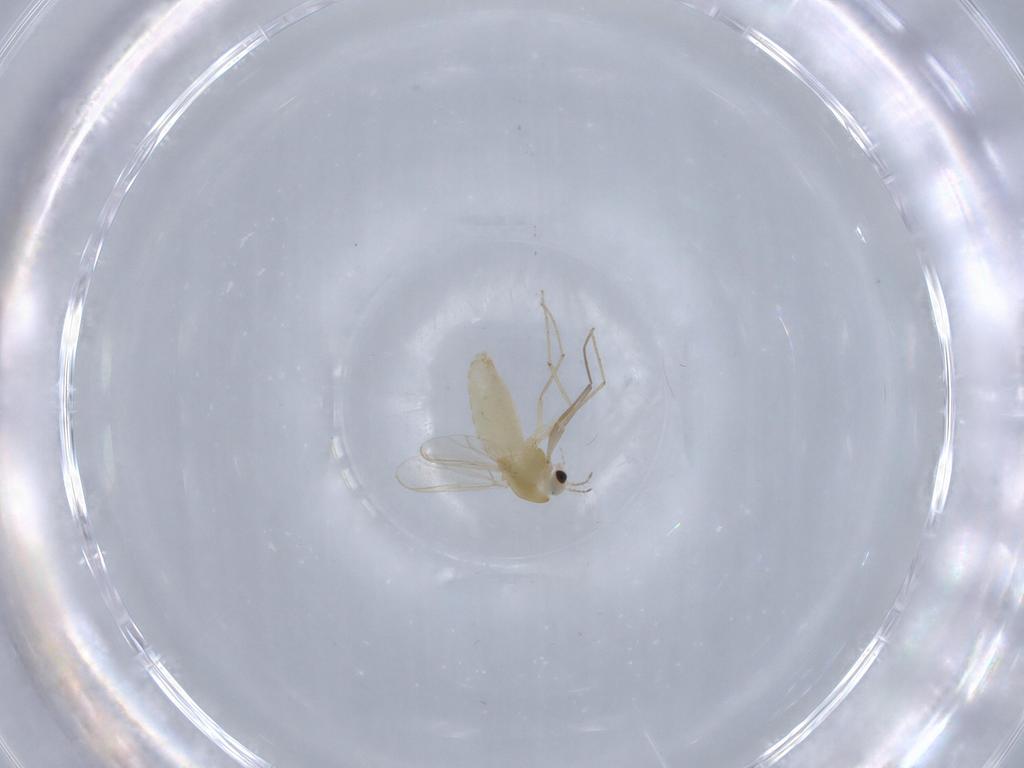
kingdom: Animalia
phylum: Arthropoda
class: Insecta
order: Diptera
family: Chironomidae
